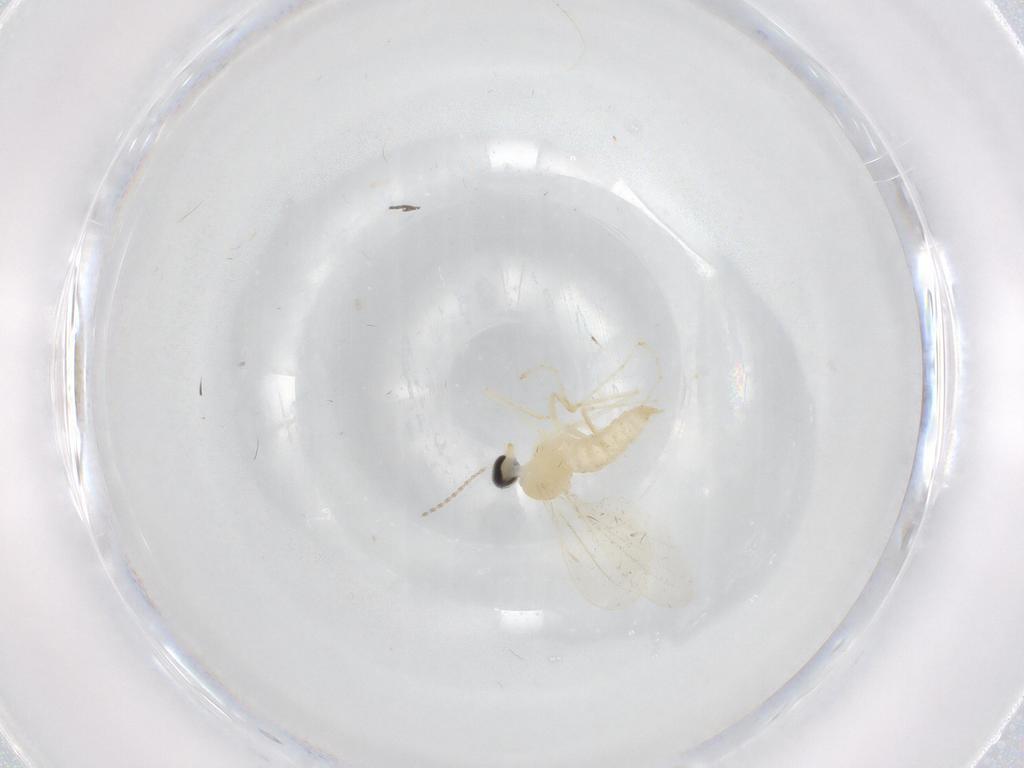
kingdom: Animalia
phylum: Arthropoda
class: Insecta
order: Diptera
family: Cecidomyiidae
